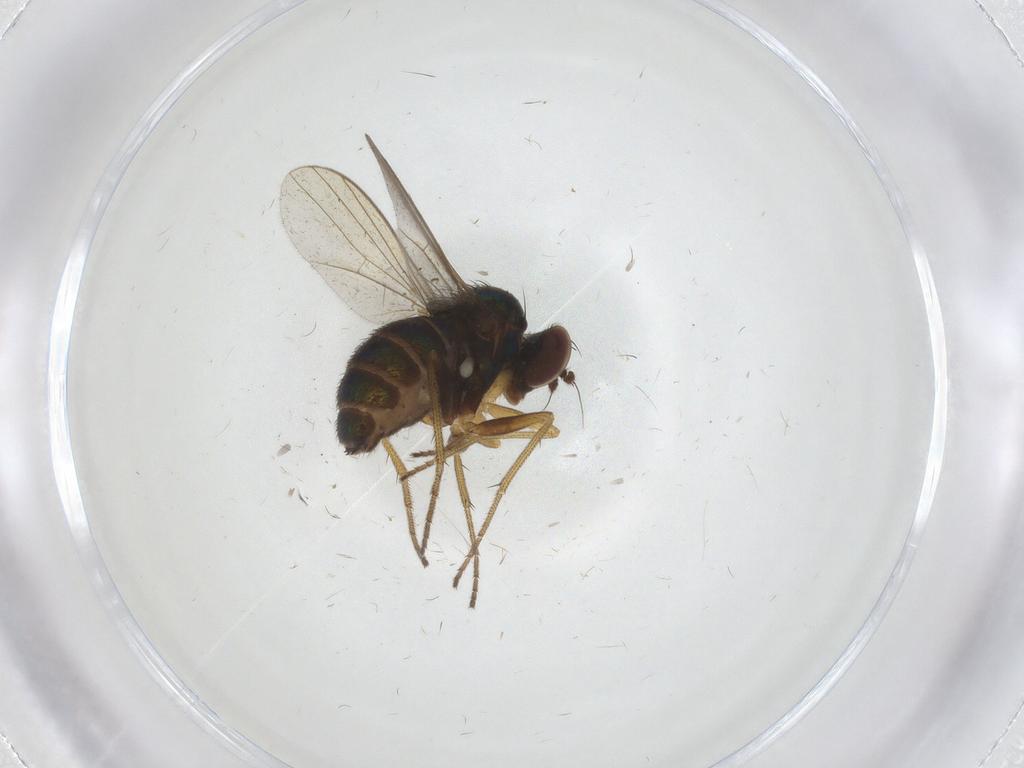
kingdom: Animalia
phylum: Arthropoda
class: Insecta
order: Diptera
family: Dolichopodidae
